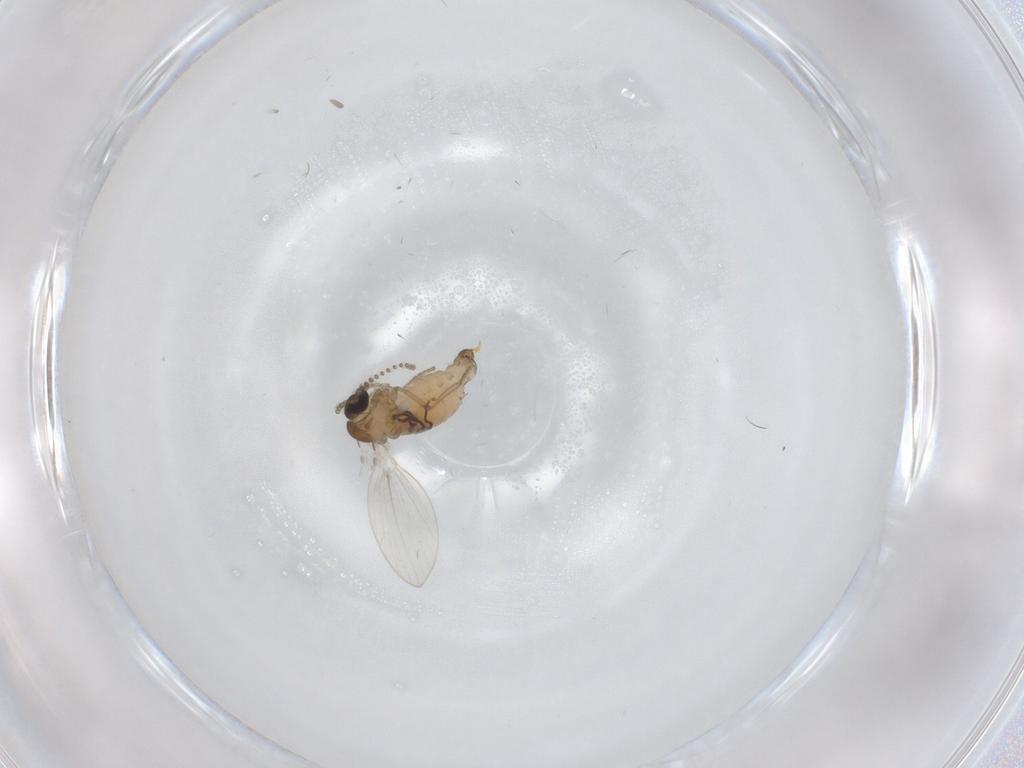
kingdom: Animalia
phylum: Arthropoda
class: Insecta
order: Diptera
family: Psychodidae
